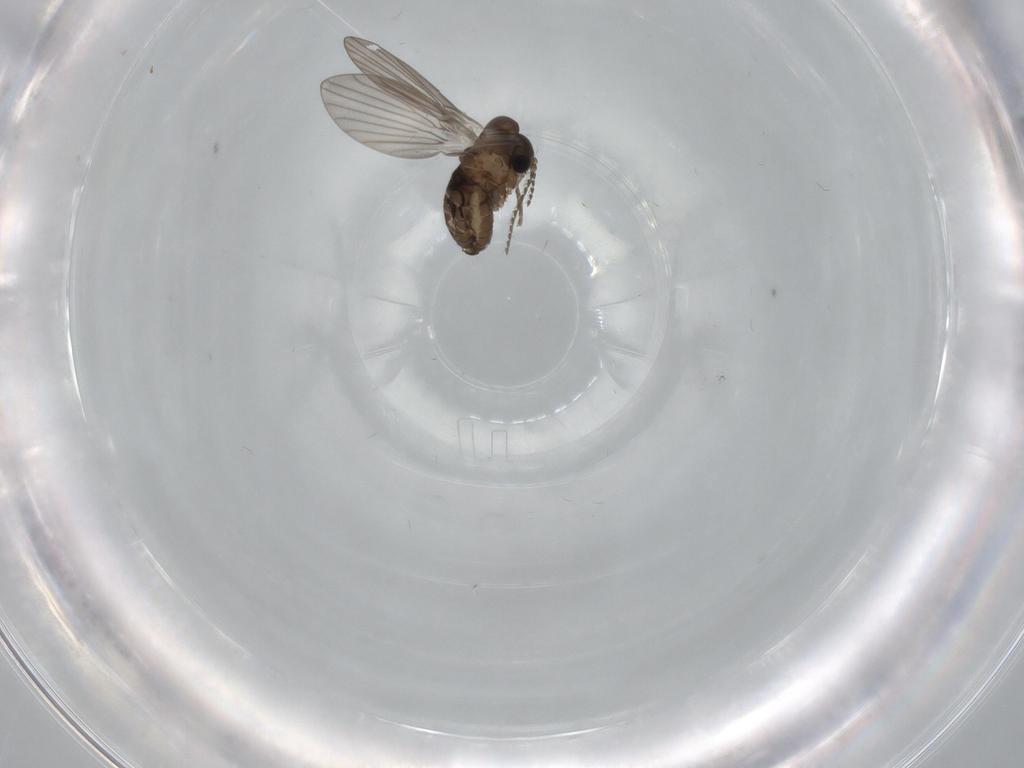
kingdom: Animalia
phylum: Arthropoda
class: Insecta
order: Diptera
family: Psychodidae
